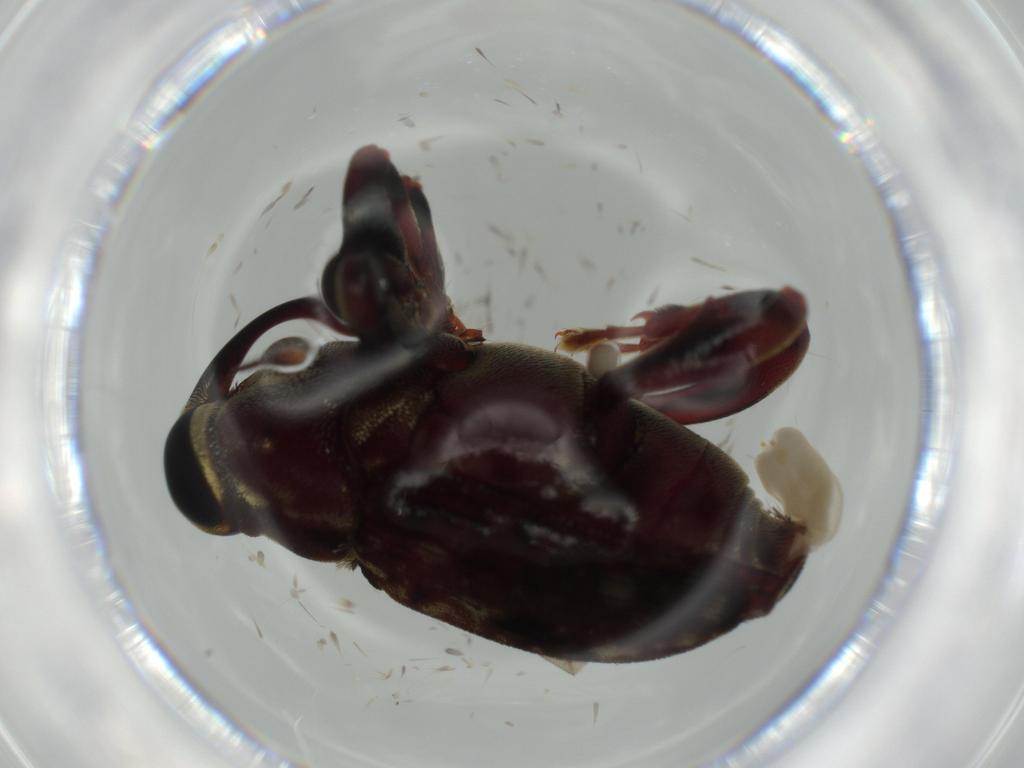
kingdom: Animalia
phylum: Arthropoda
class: Insecta
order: Coleoptera
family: Curculionidae
